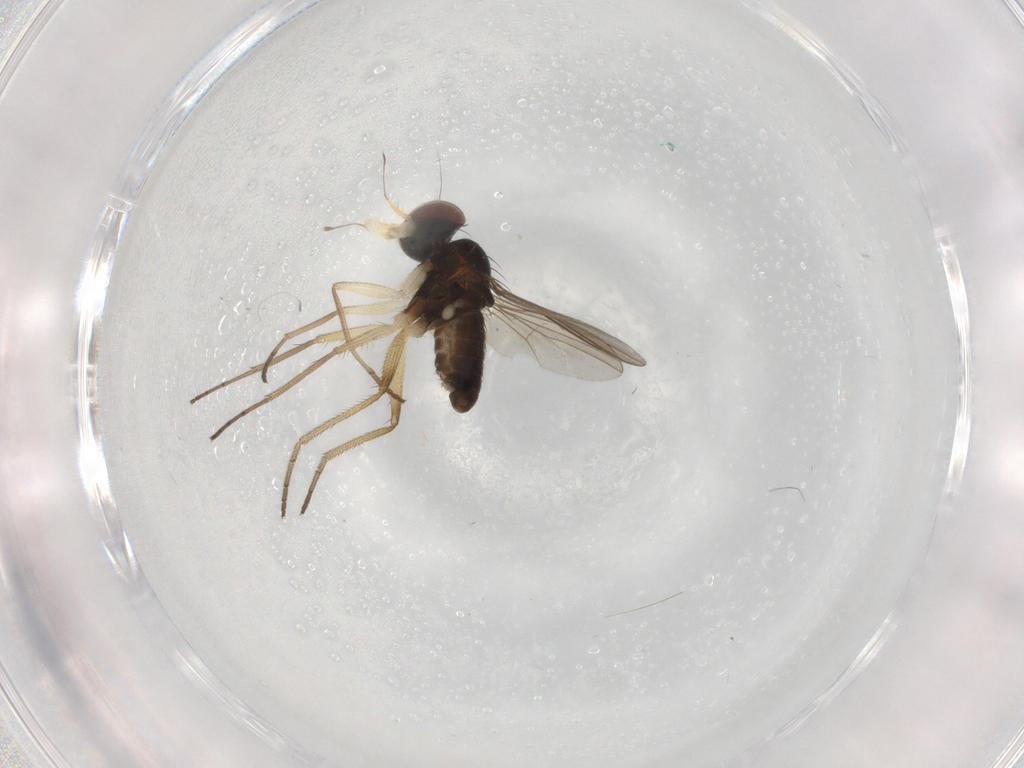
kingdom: Animalia
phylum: Arthropoda
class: Insecta
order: Diptera
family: Dolichopodidae
